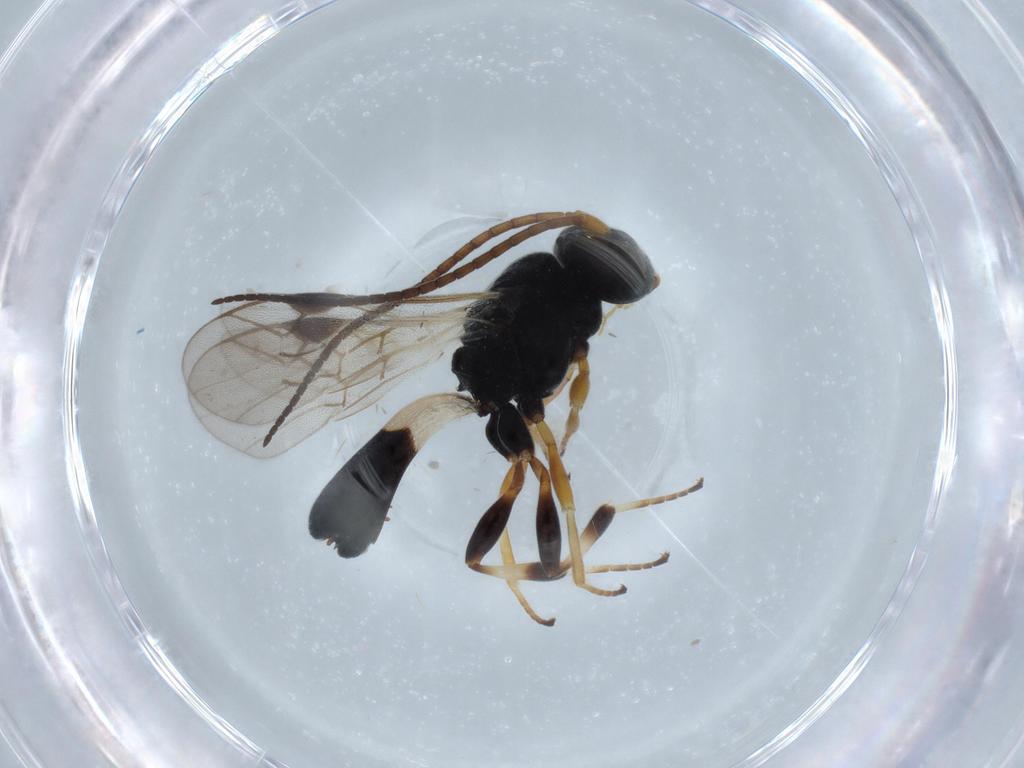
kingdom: Animalia
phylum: Arthropoda
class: Insecta
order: Hymenoptera
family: Braconidae
